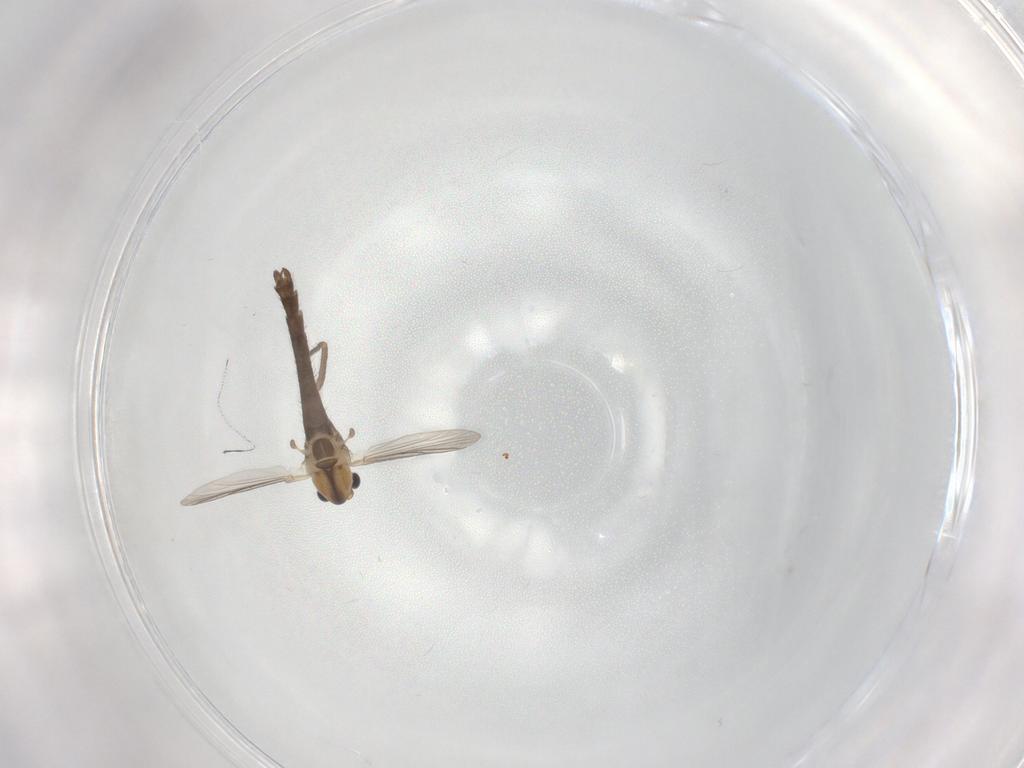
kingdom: Animalia
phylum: Arthropoda
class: Insecta
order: Diptera
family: Chironomidae
